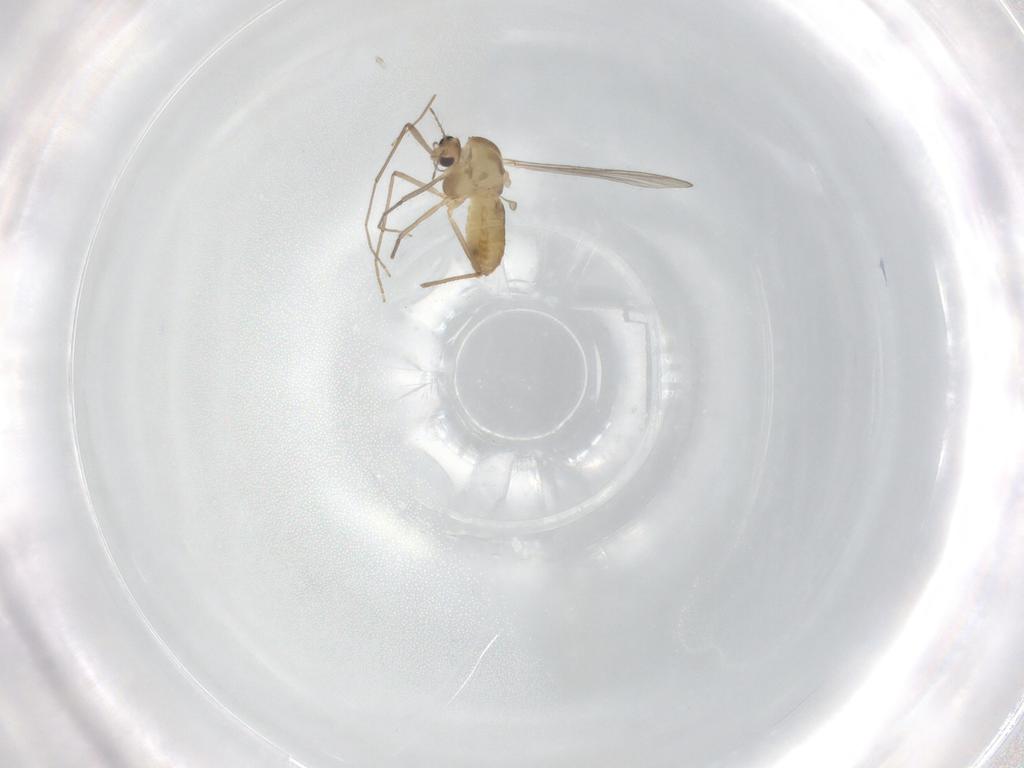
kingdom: Animalia
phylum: Arthropoda
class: Insecta
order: Diptera
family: Chironomidae
